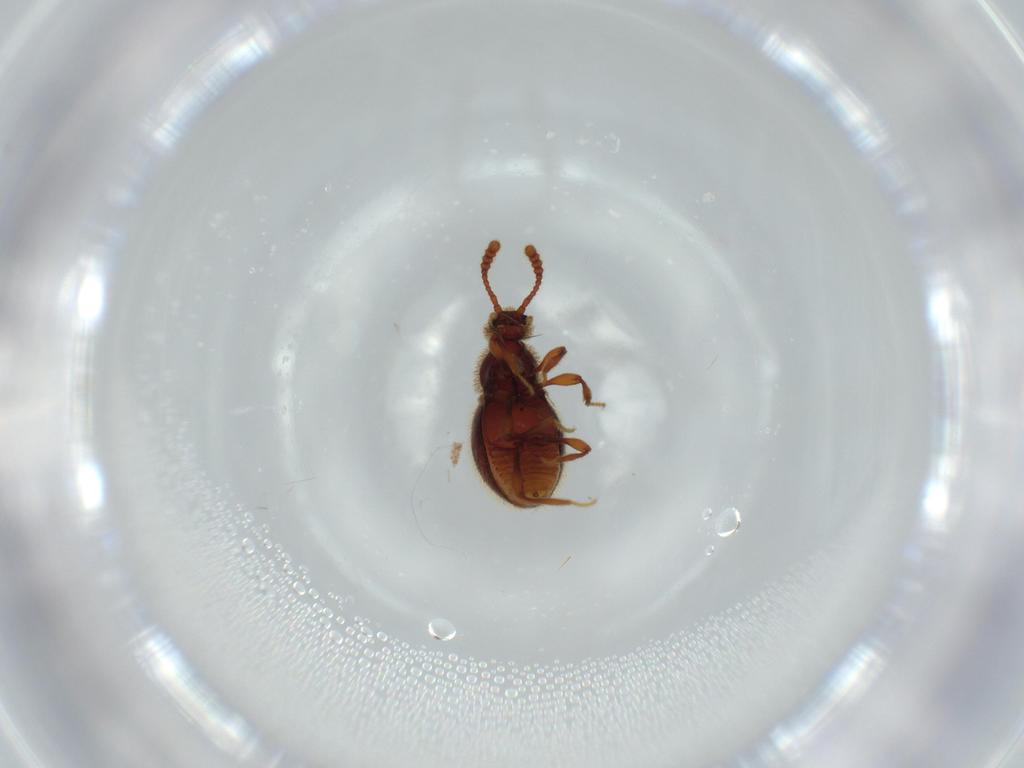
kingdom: Animalia
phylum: Arthropoda
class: Insecta
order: Coleoptera
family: Staphylinidae
